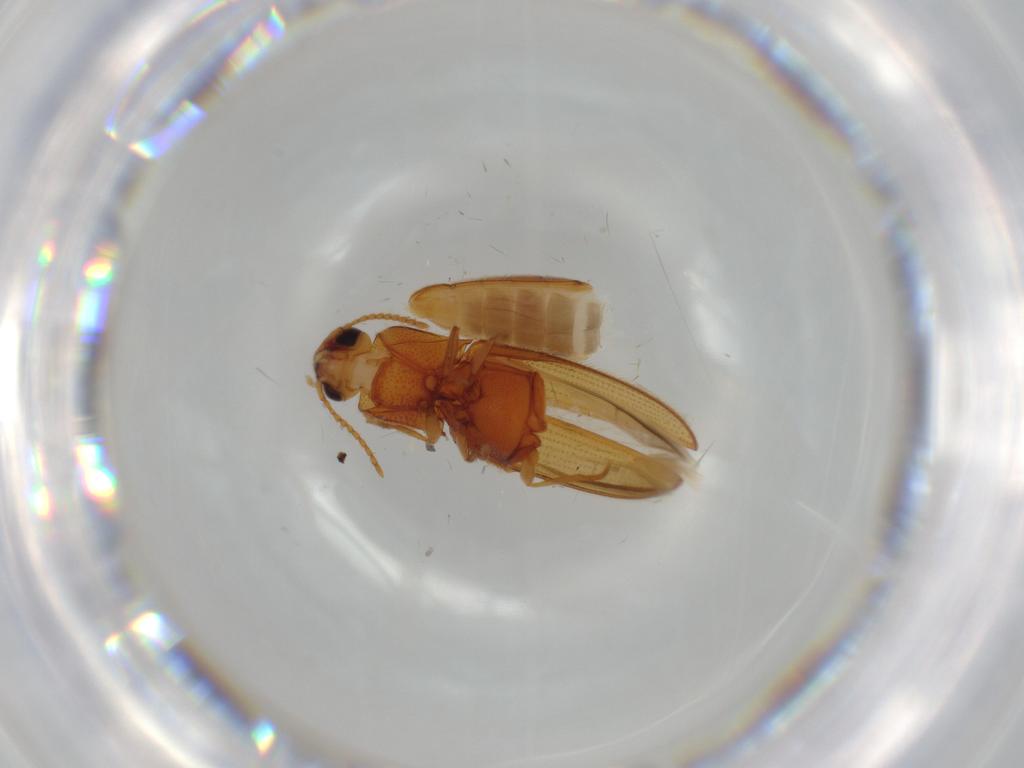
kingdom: Animalia
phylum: Arthropoda
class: Insecta
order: Coleoptera
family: Elateridae
